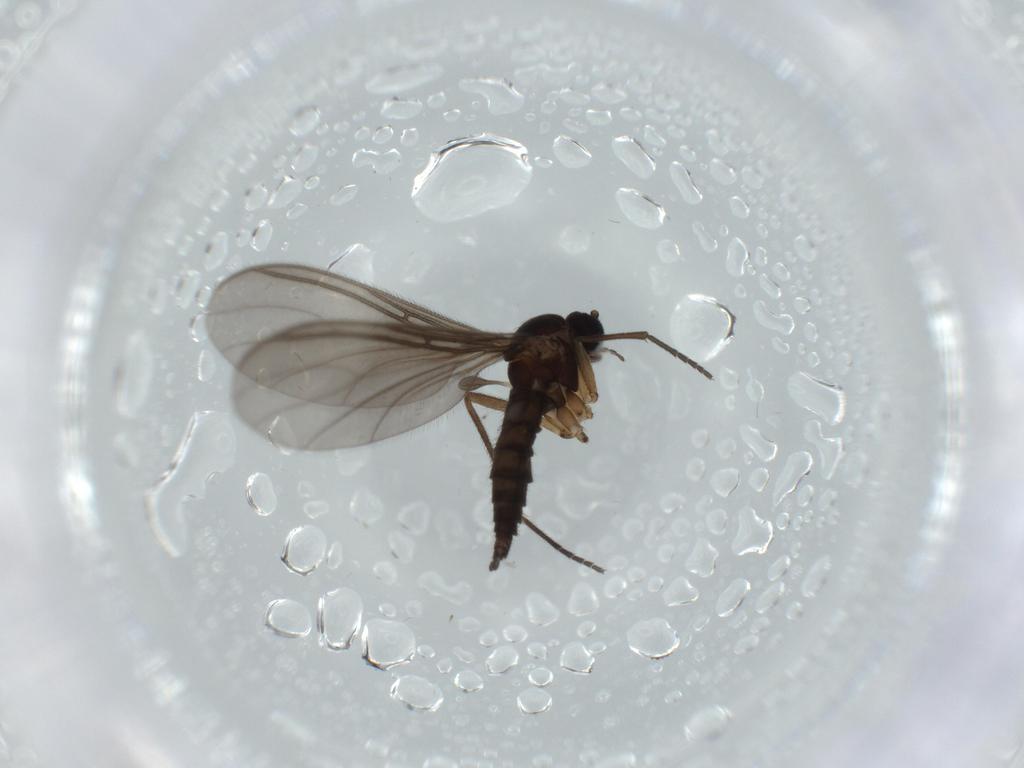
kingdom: Animalia
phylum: Arthropoda
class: Insecta
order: Diptera
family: Sciaridae
